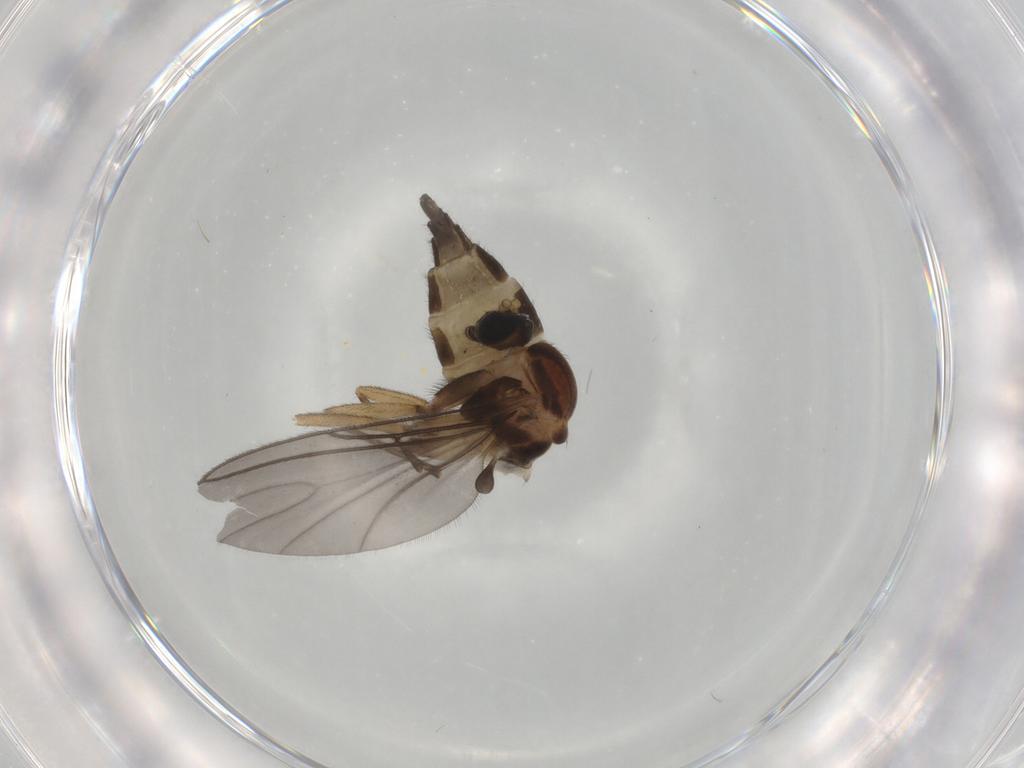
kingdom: Animalia
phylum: Arthropoda
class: Insecta
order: Diptera
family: Sciaridae
